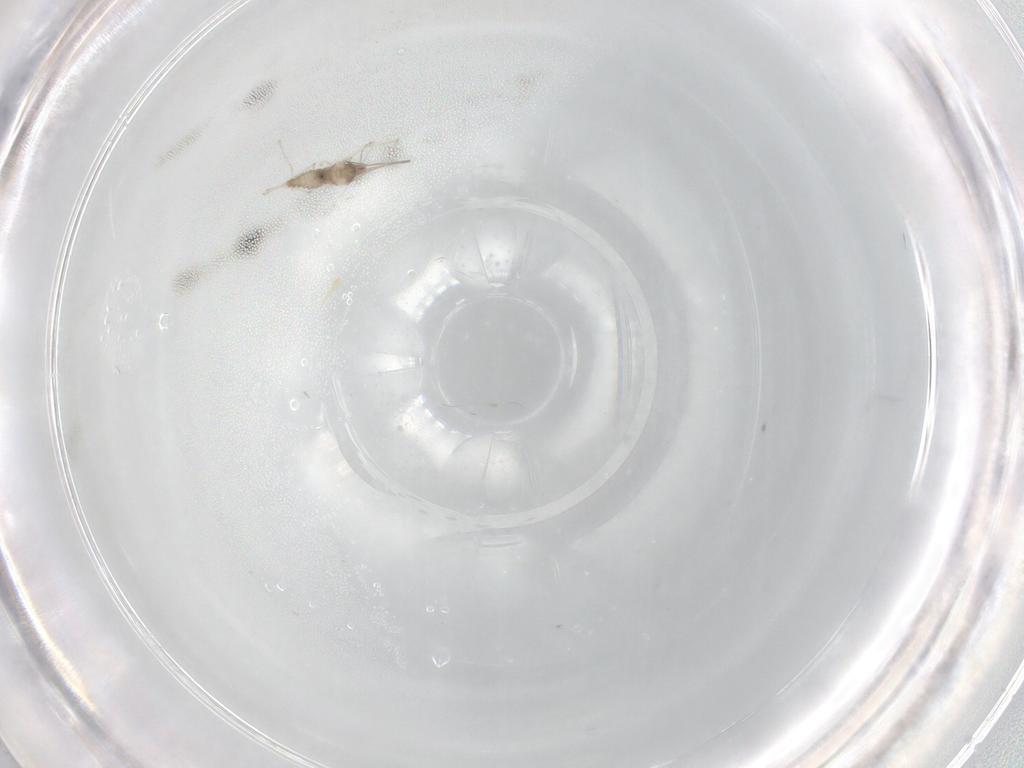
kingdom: Animalia
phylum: Arthropoda
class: Insecta
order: Diptera
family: Cecidomyiidae
